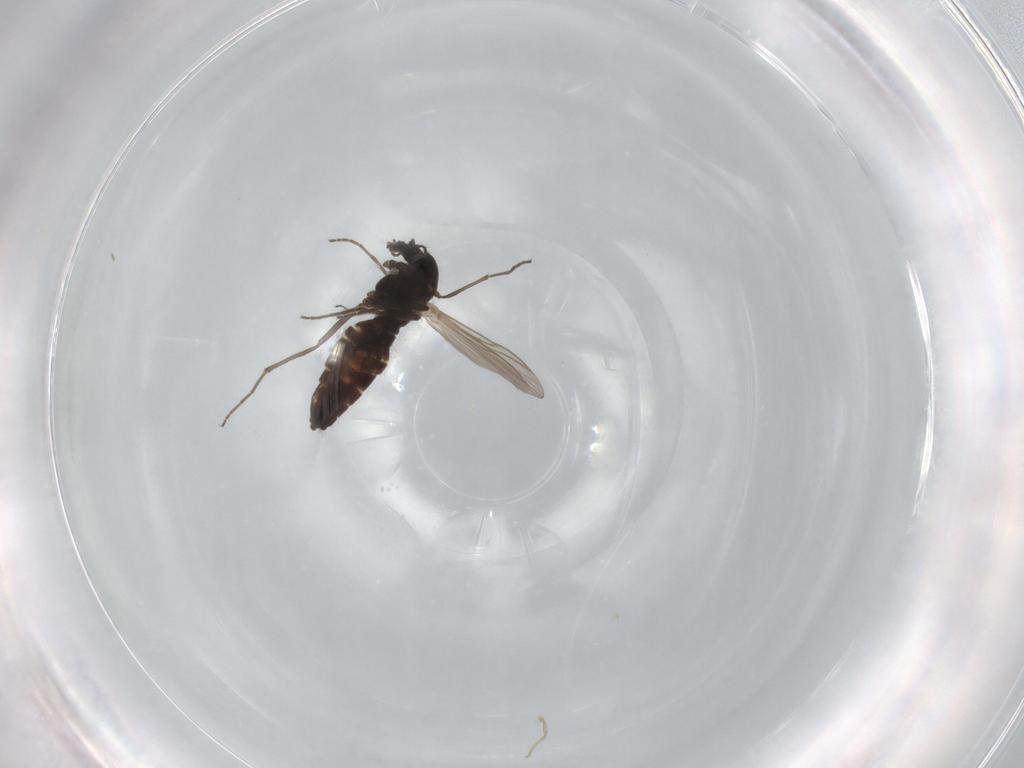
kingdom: Animalia
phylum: Arthropoda
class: Insecta
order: Diptera
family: Chironomidae
